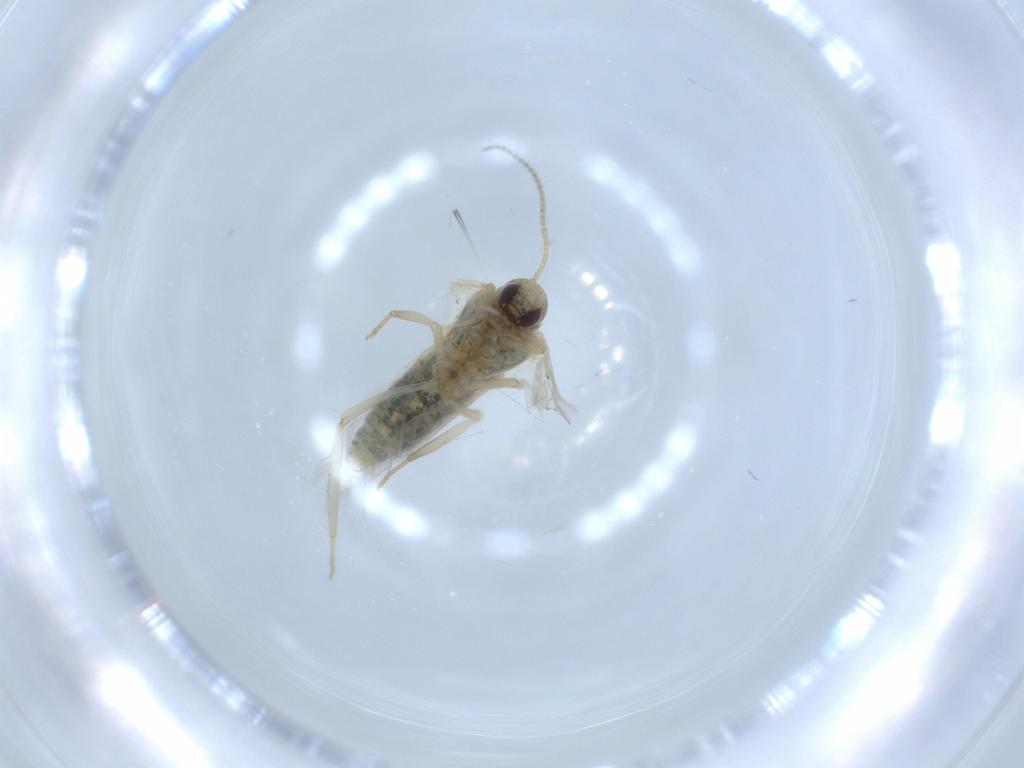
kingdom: Animalia
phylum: Arthropoda
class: Insecta
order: Neuroptera
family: Coniopterygidae
